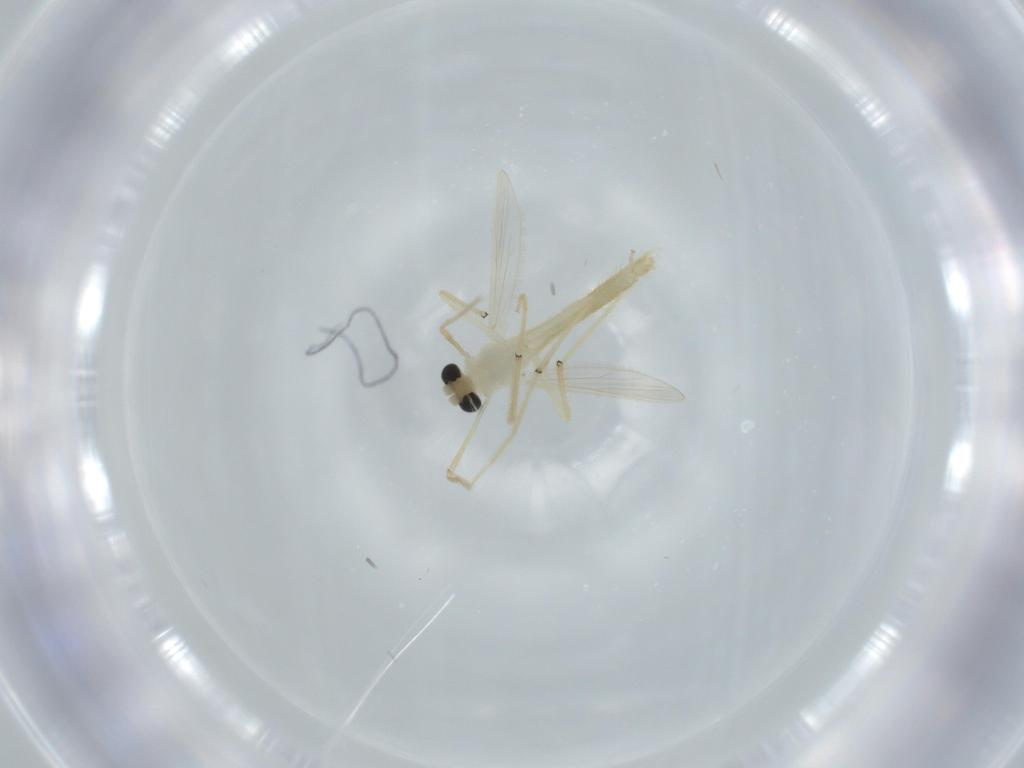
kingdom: Animalia
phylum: Arthropoda
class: Insecta
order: Diptera
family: Chironomidae
